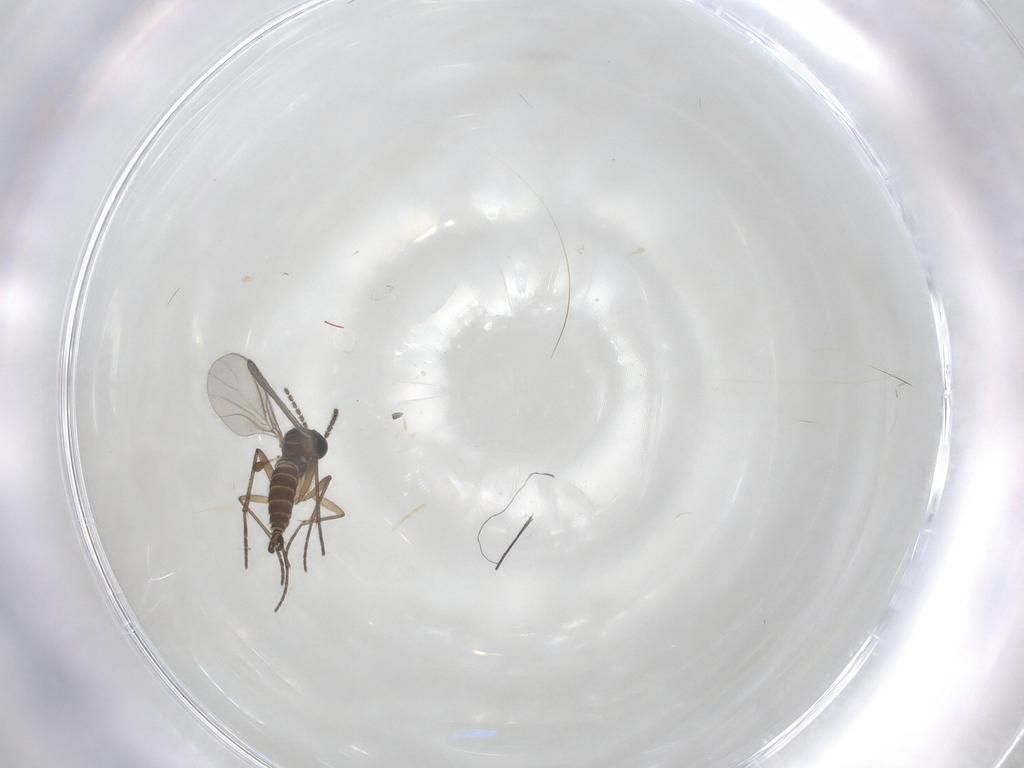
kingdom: Animalia
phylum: Arthropoda
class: Insecta
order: Diptera
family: Sciaridae
